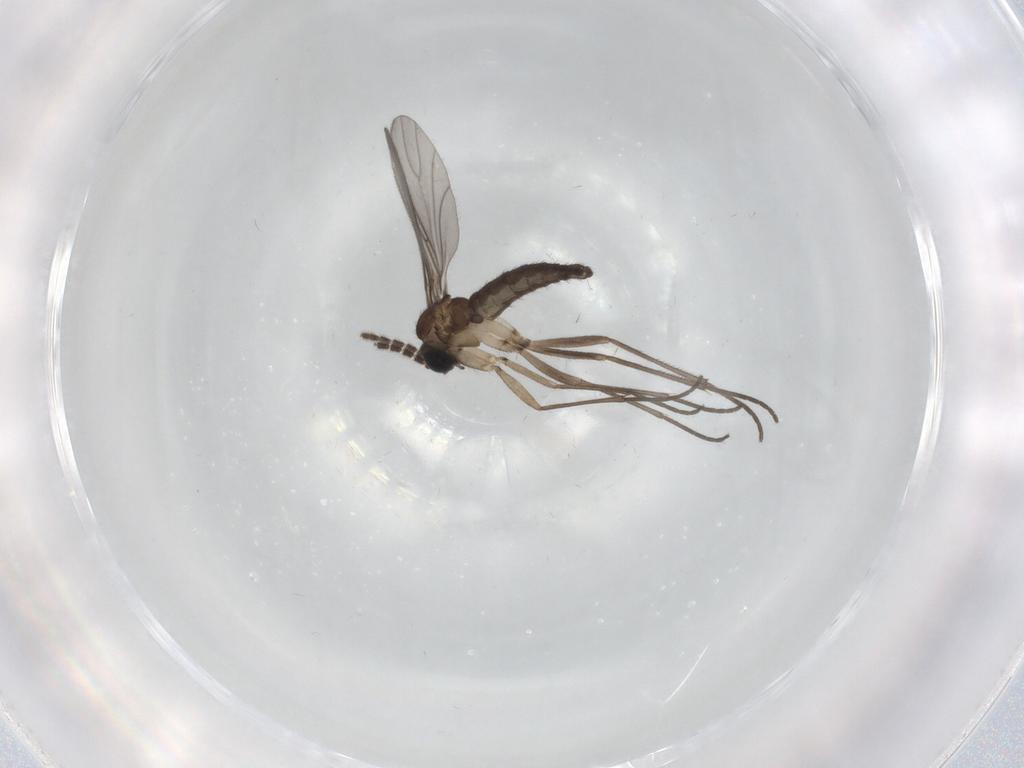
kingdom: Animalia
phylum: Arthropoda
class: Insecta
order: Diptera
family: Sciaridae
